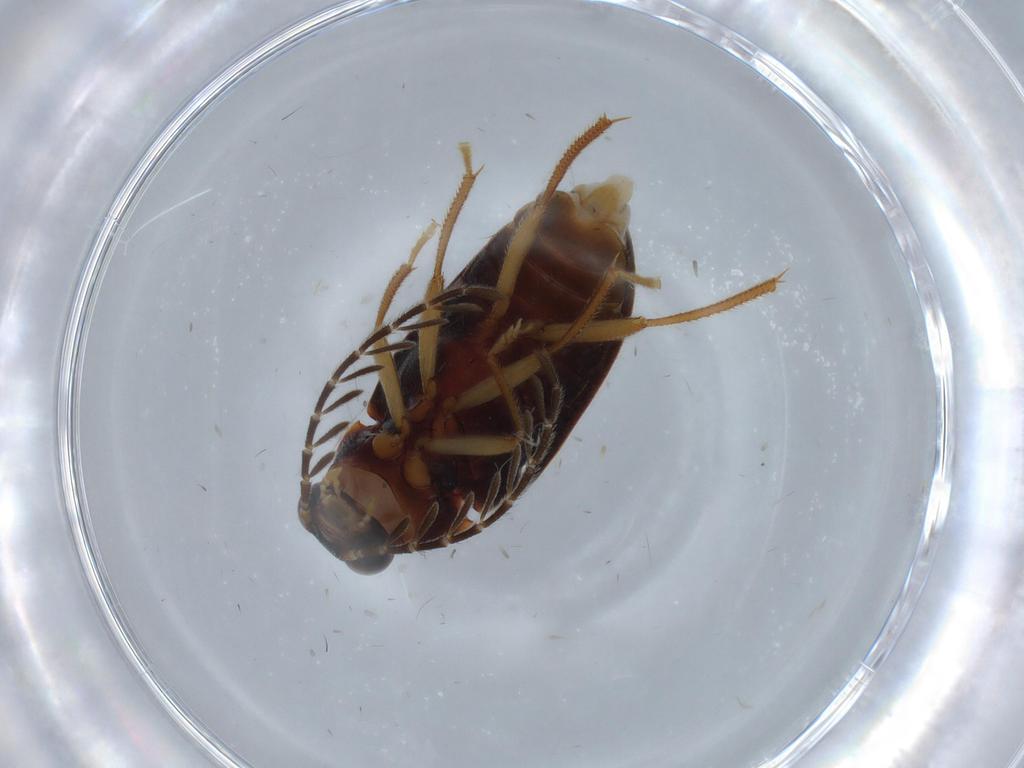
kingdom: Animalia
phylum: Arthropoda
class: Insecta
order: Coleoptera
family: Ptilodactylidae
